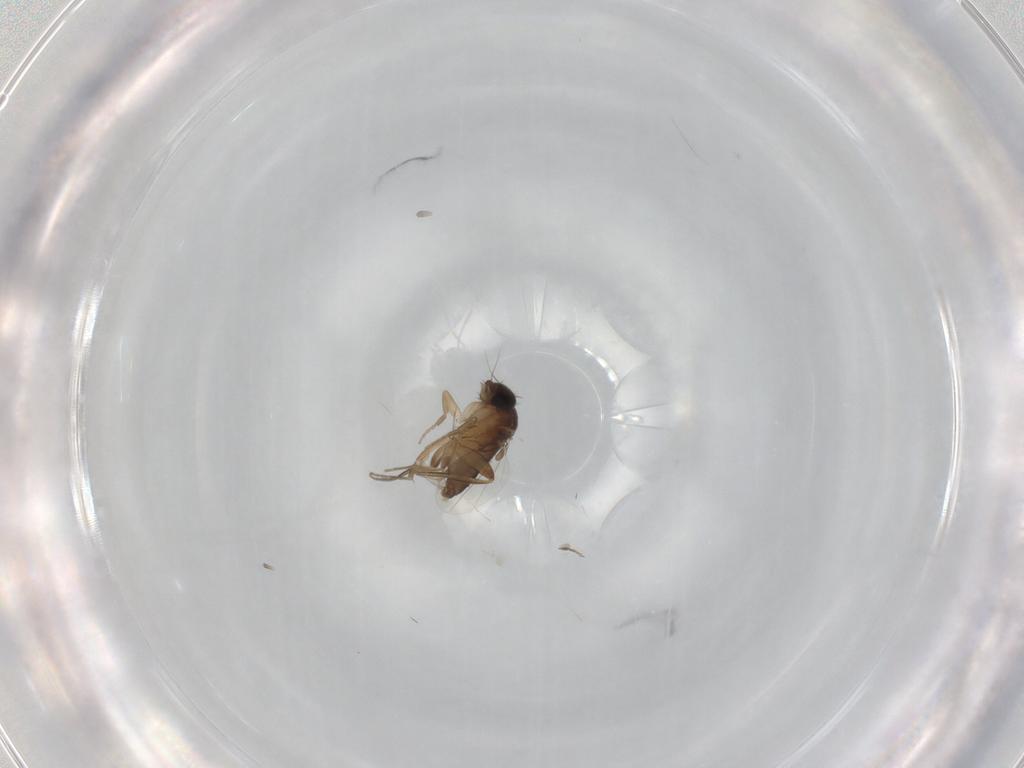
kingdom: Animalia
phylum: Arthropoda
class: Insecta
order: Diptera
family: Phoridae
